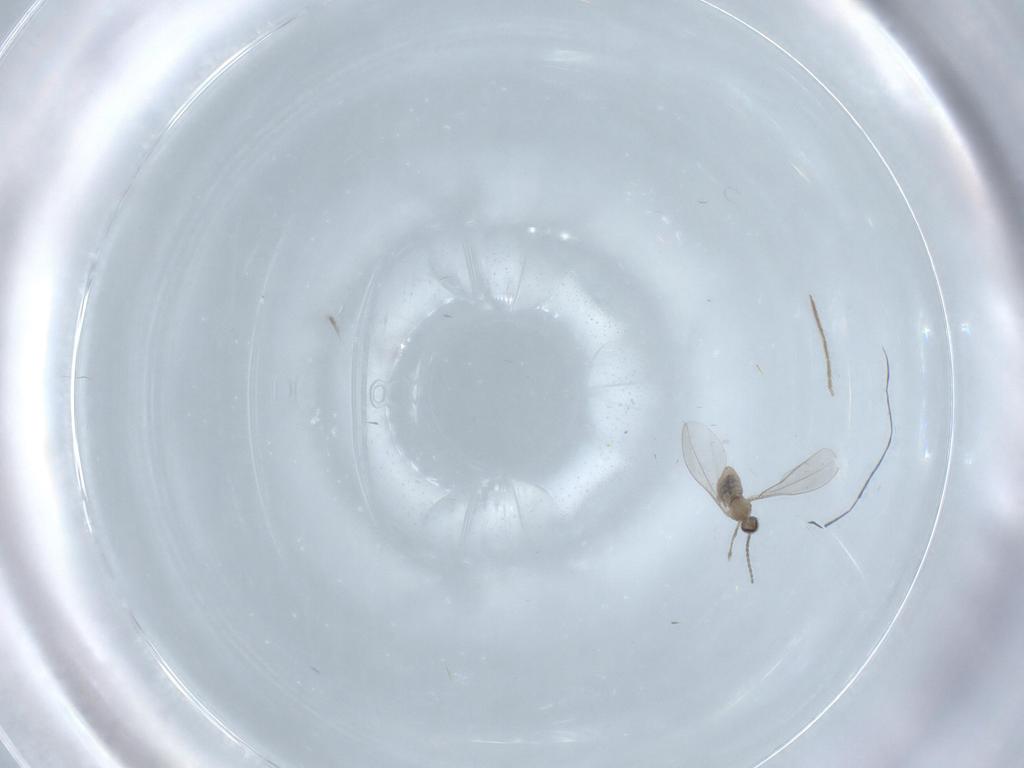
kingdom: Animalia
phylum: Arthropoda
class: Insecta
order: Diptera
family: Cecidomyiidae
